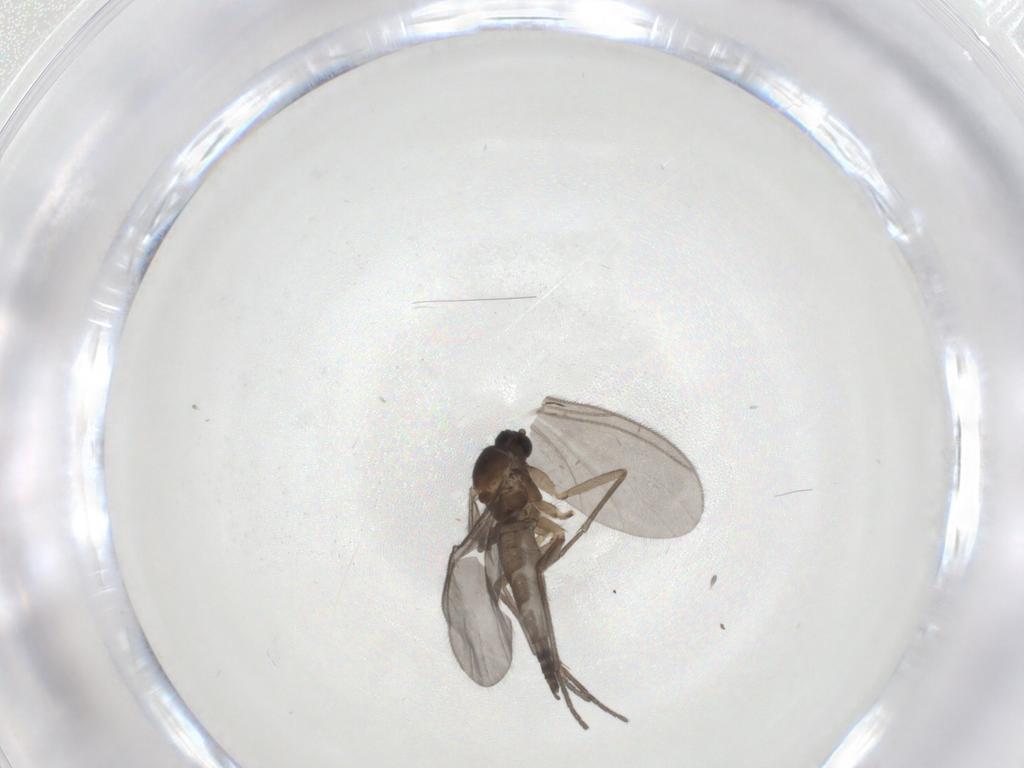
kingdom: Animalia
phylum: Arthropoda
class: Insecta
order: Diptera
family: Sciaridae
